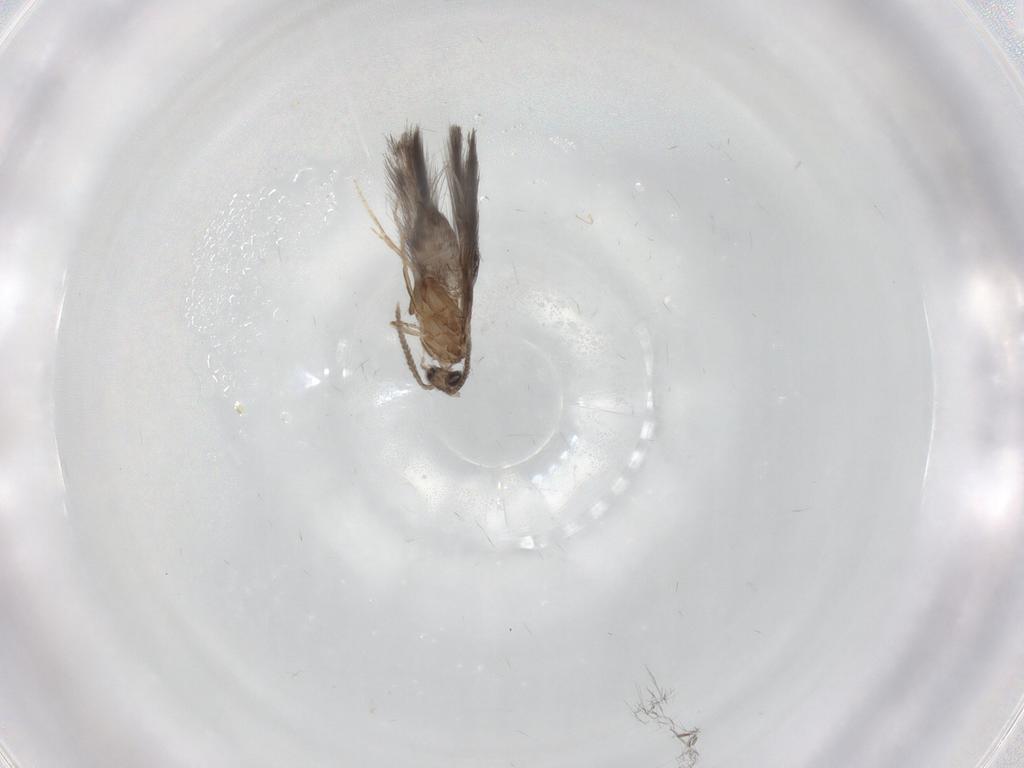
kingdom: Animalia
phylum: Arthropoda
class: Insecta
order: Trichoptera
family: Hydroptilidae
